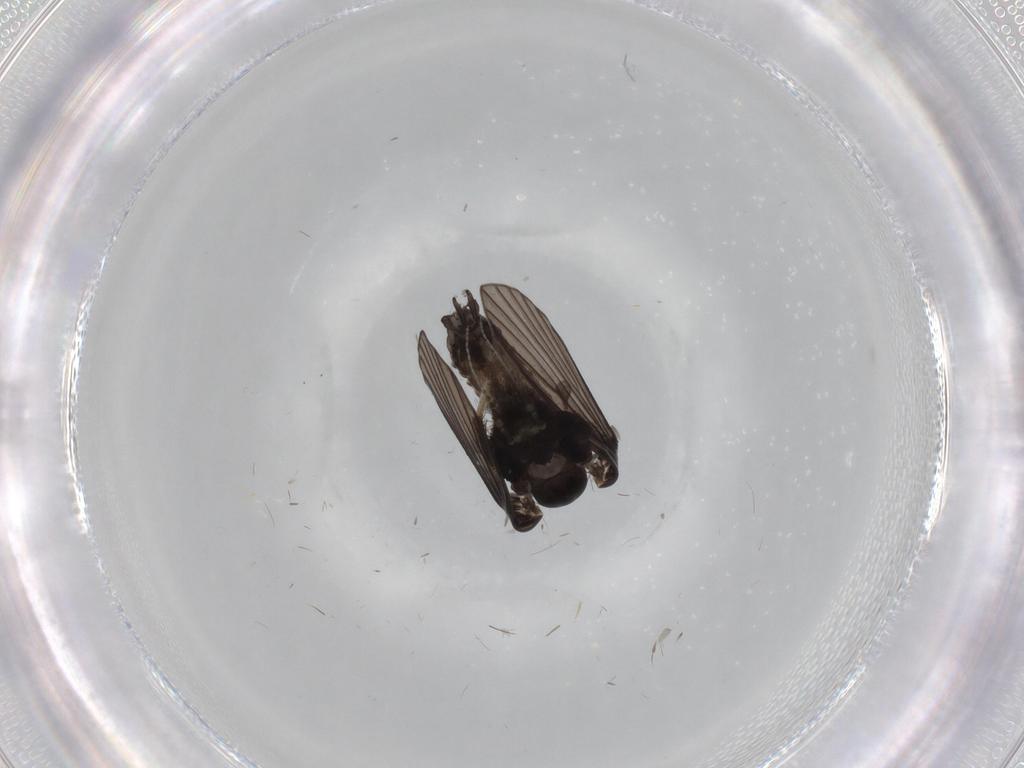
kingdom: Animalia
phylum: Arthropoda
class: Insecta
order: Diptera
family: Psychodidae
